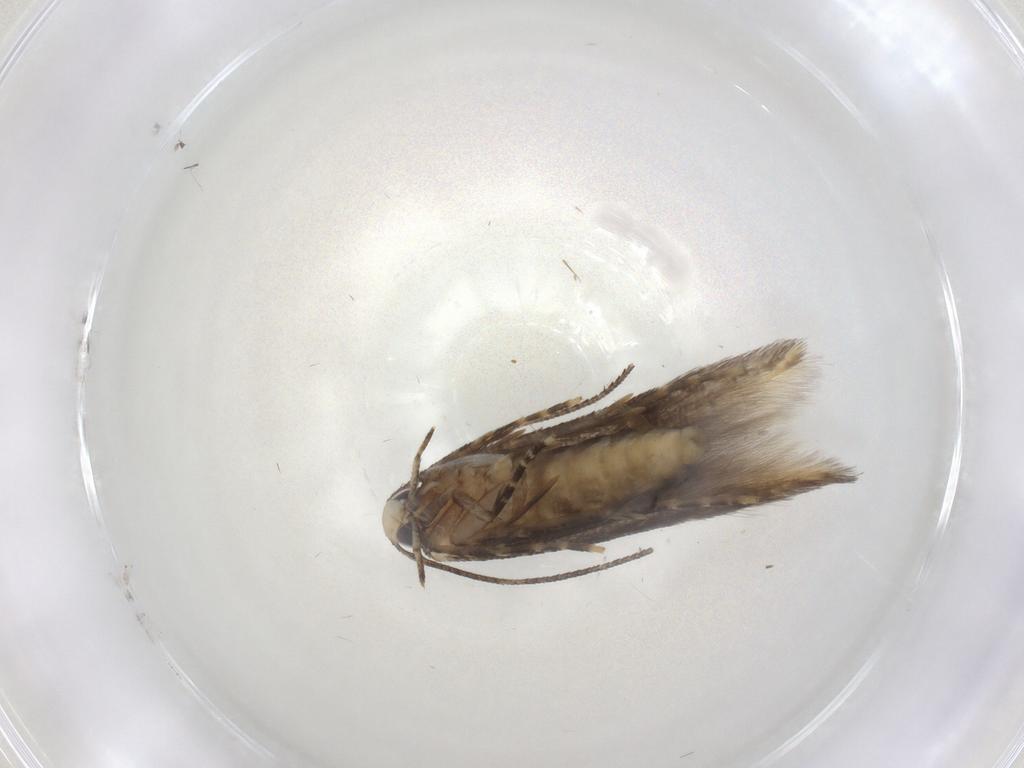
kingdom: Animalia
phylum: Arthropoda
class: Insecta
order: Lepidoptera
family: Cosmopterigidae
